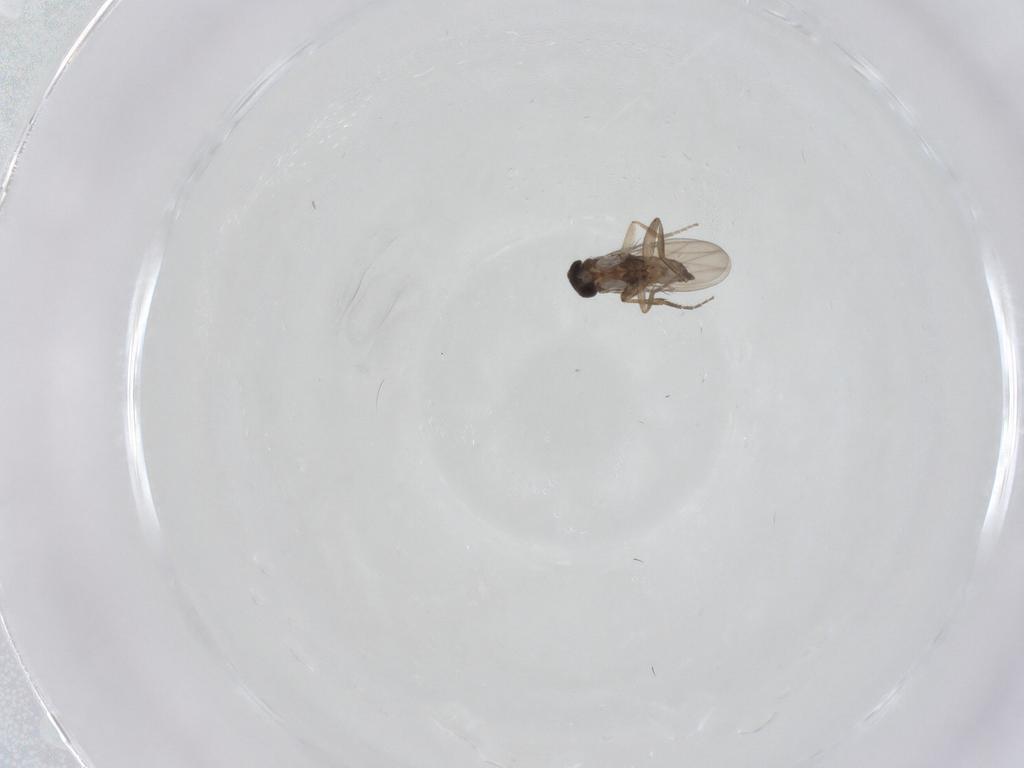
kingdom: Animalia
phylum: Arthropoda
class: Insecta
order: Diptera
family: Phoridae
